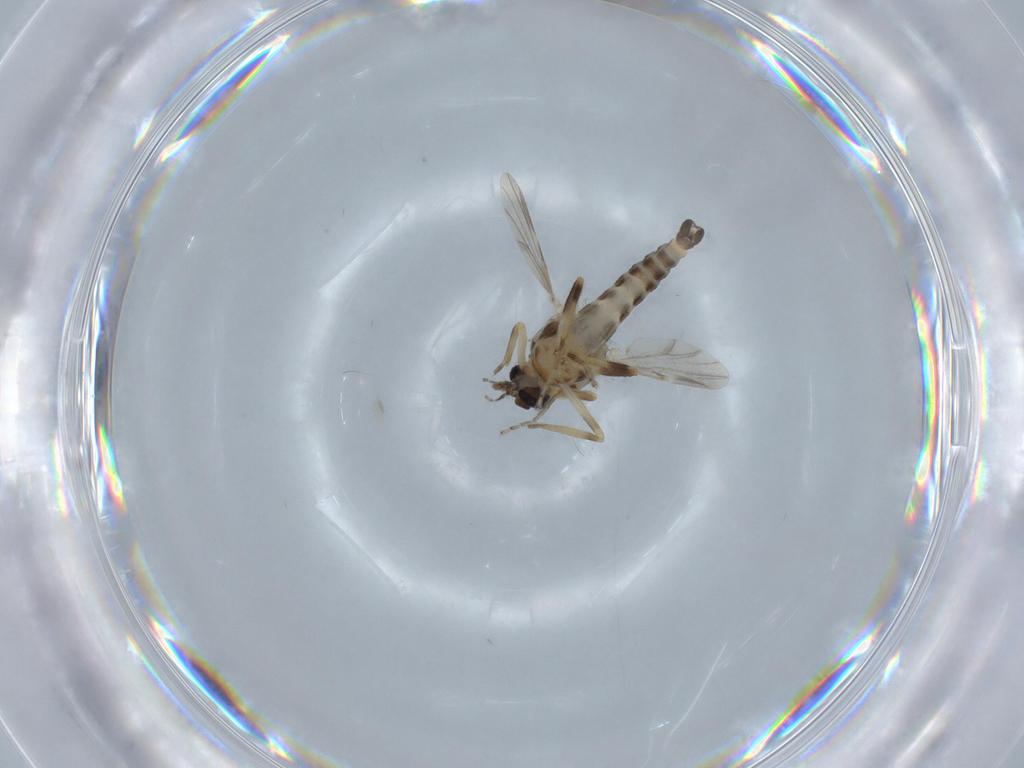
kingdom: Animalia
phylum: Arthropoda
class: Insecta
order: Diptera
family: Ceratopogonidae
